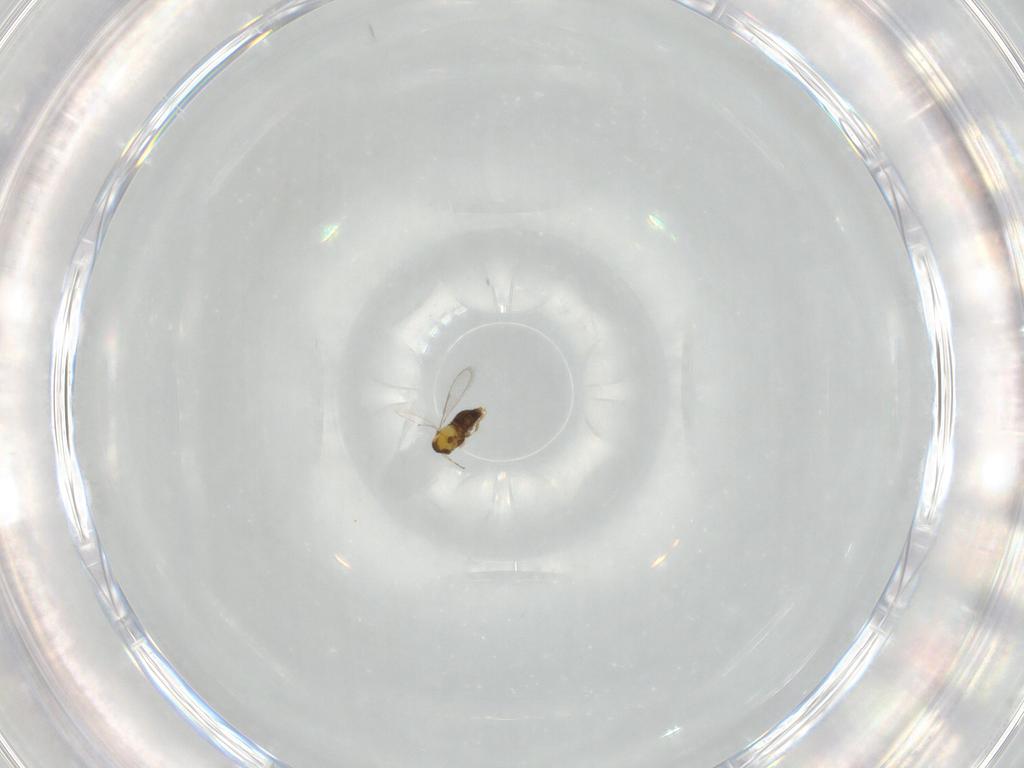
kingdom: Animalia
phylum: Arthropoda
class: Insecta
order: Hymenoptera
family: Aphelinidae
